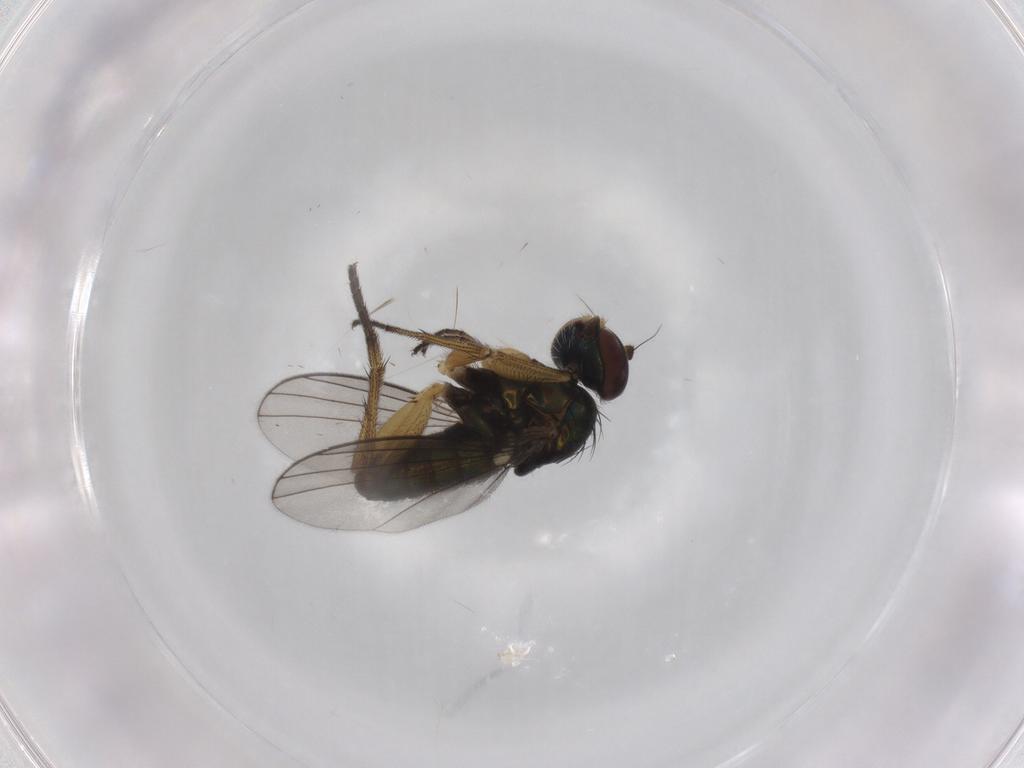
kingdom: Animalia
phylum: Arthropoda
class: Insecta
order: Diptera
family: Dolichopodidae
